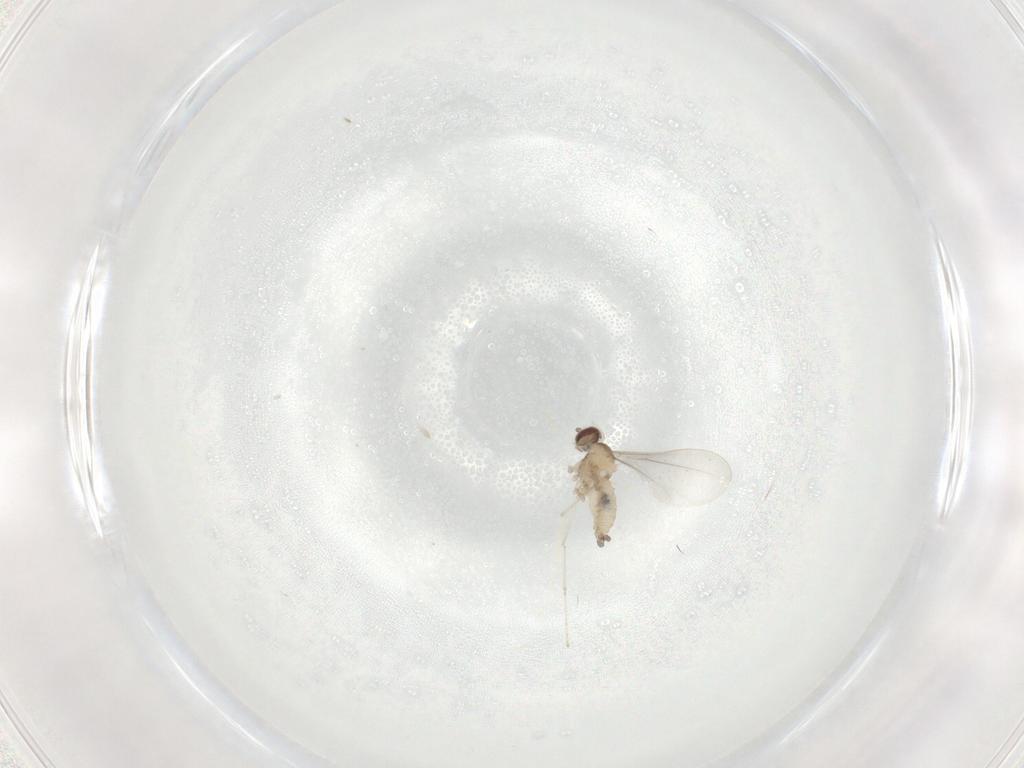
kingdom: Animalia
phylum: Arthropoda
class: Insecta
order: Diptera
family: Cecidomyiidae
